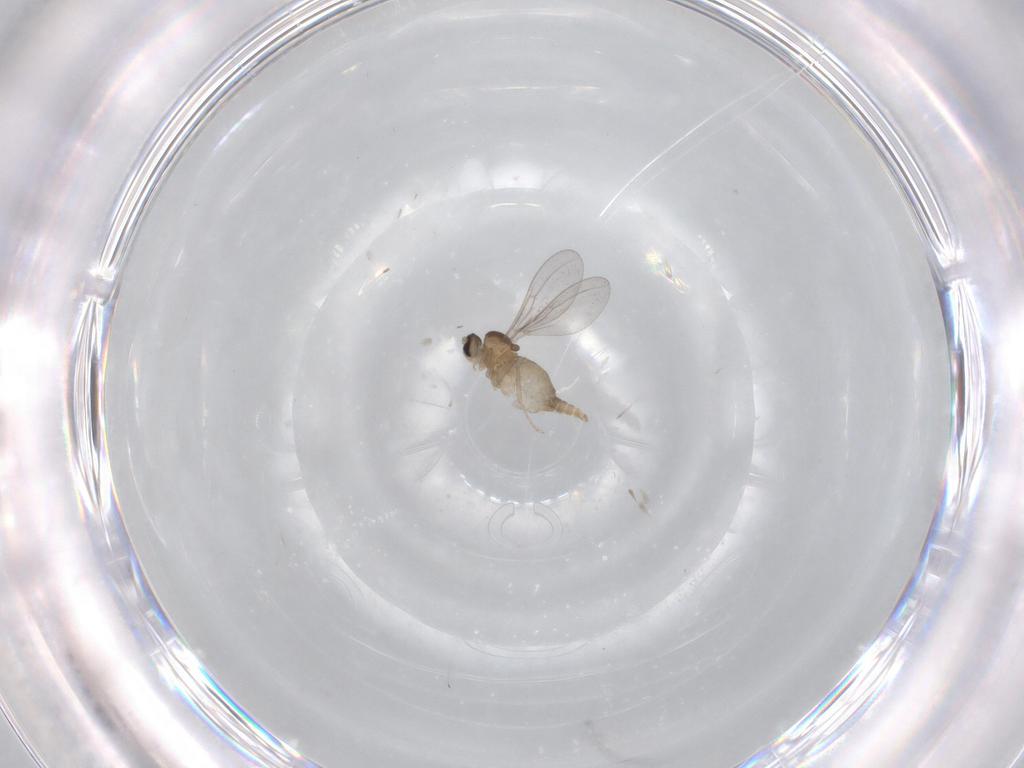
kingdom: Animalia
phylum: Arthropoda
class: Insecta
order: Diptera
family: Cecidomyiidae
